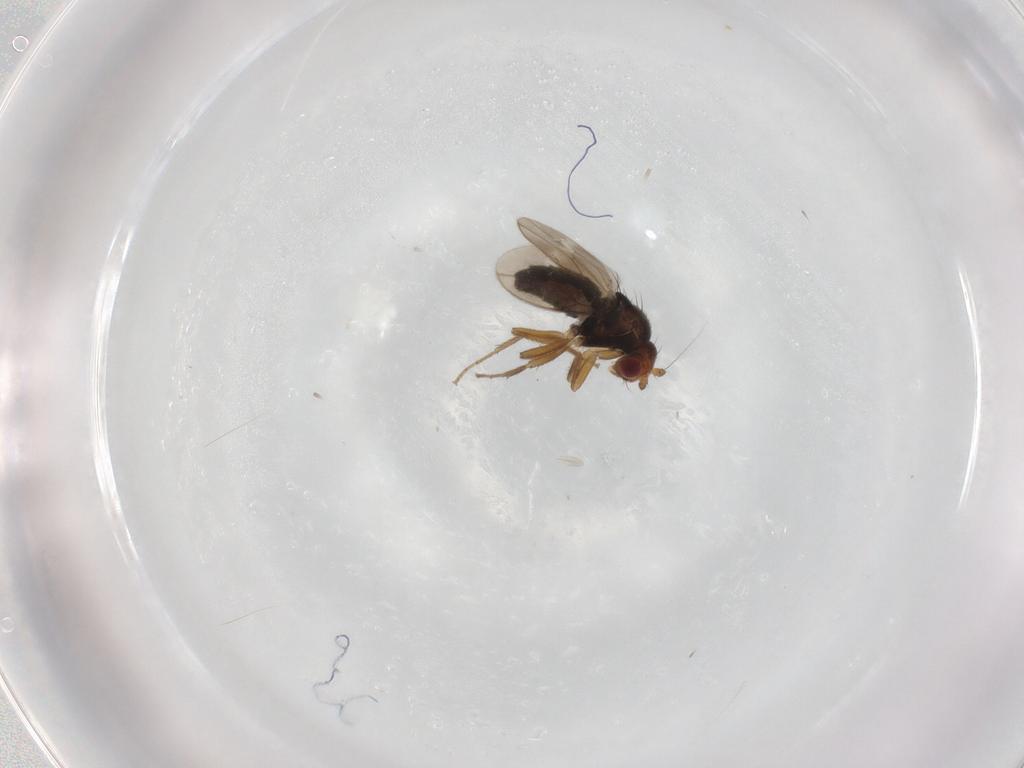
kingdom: Animalia
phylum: Arthropoda
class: Insecta
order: Diptera
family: Sphaeroceridae
